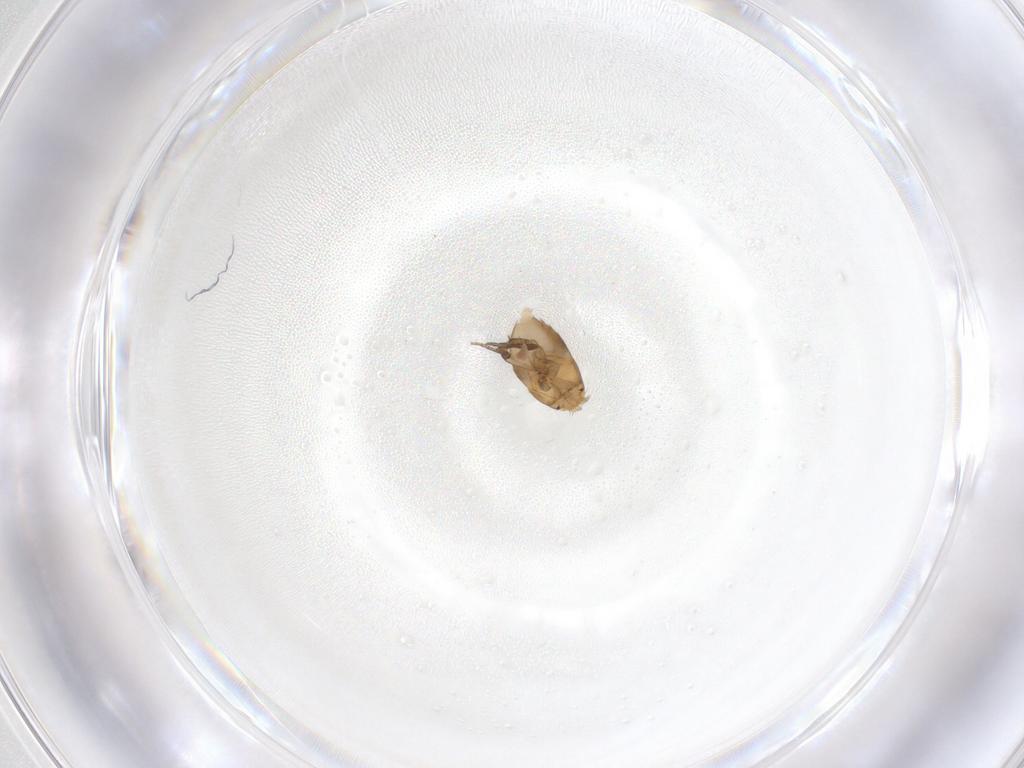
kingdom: Animalia
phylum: Arthropoda
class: Insecta
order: Diptera
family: Phoridae
